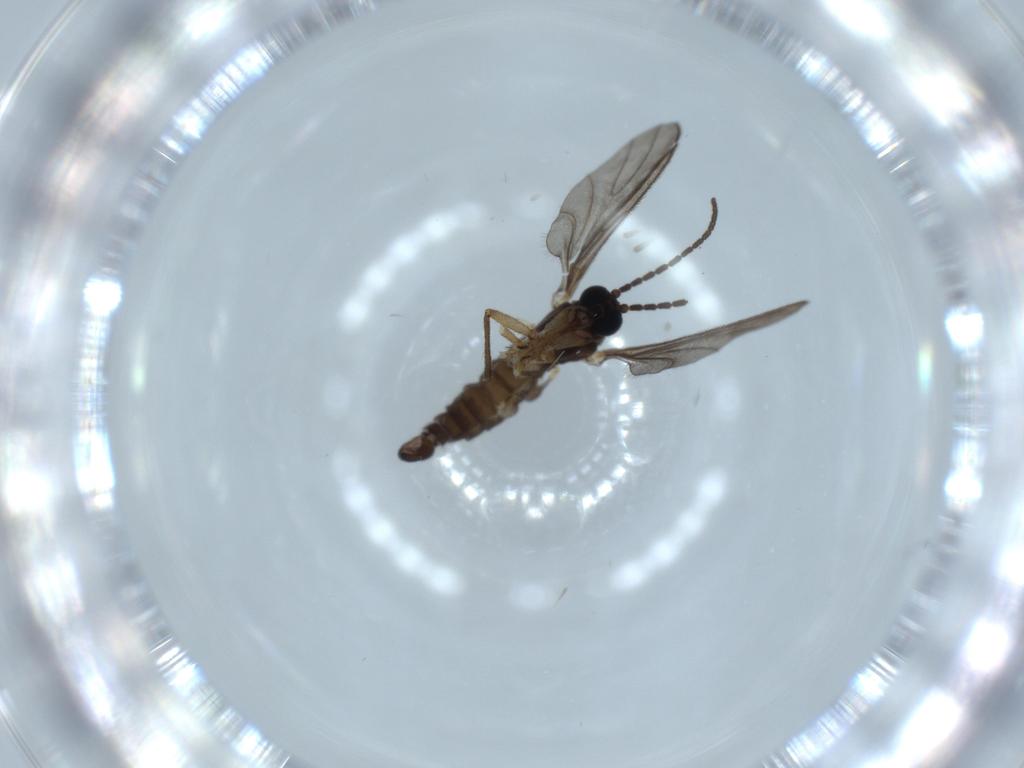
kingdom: Animalia
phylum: Arthropoda
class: Insecta
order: Diptera
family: Sciaridae
